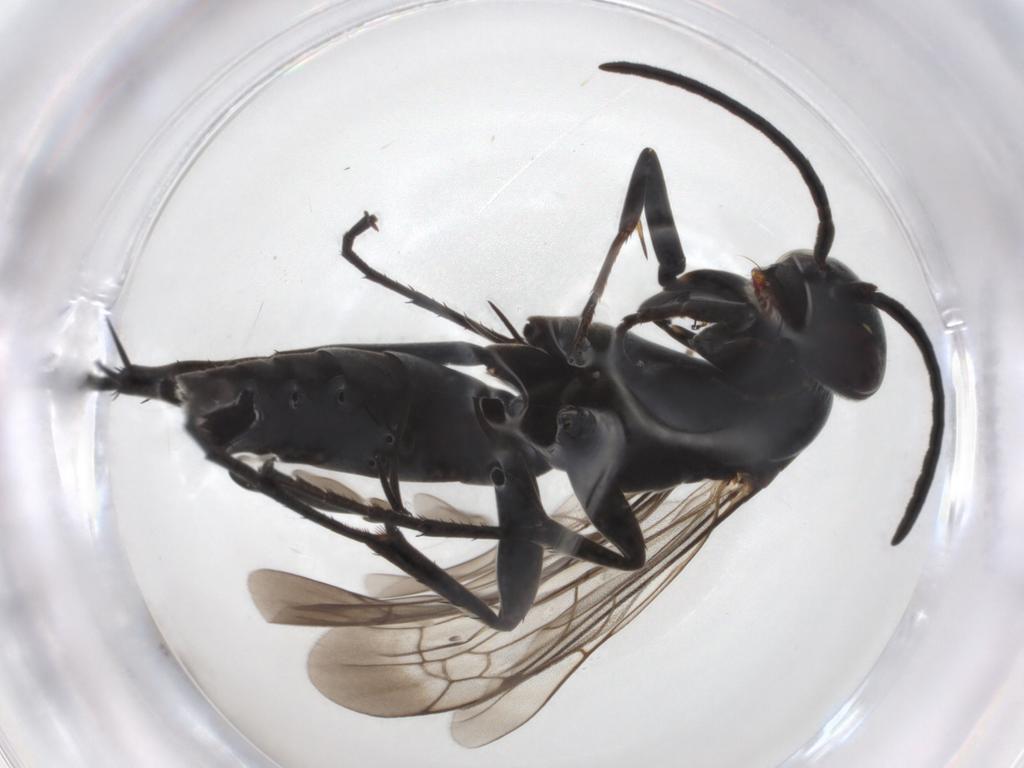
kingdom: Animalia
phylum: Arthropoda
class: Insecta
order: Hymenoptera
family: Pompilidae
